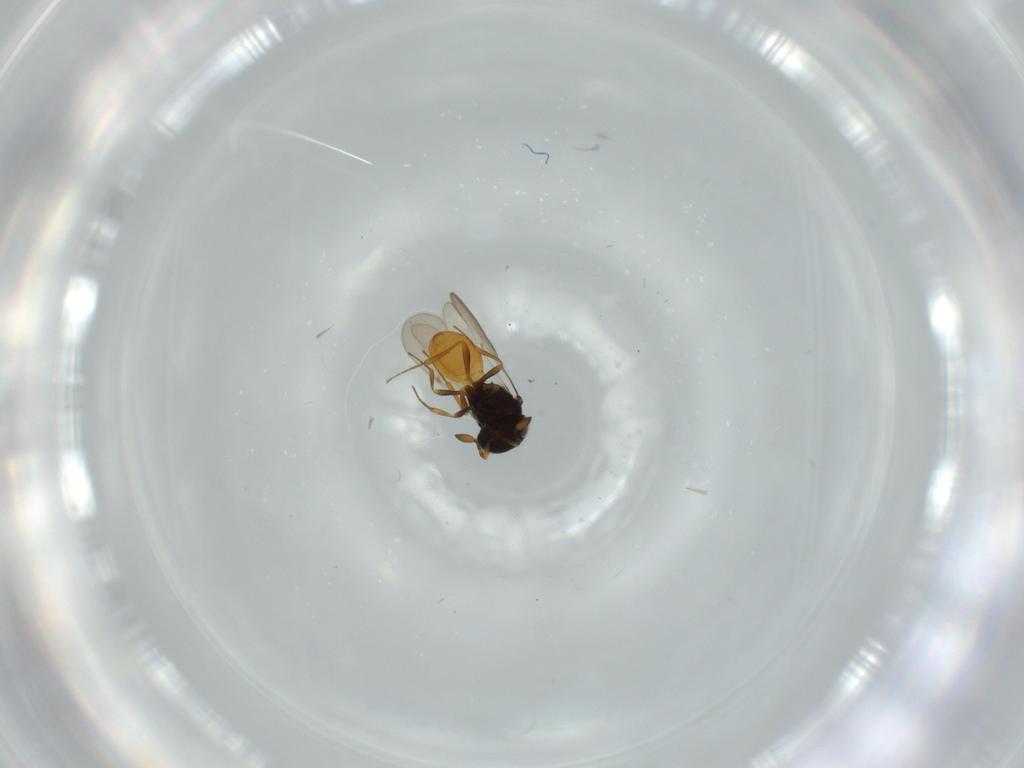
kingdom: Animalia
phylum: Arthropoda
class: Insecta
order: Hymenoptera
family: Scelionidae
